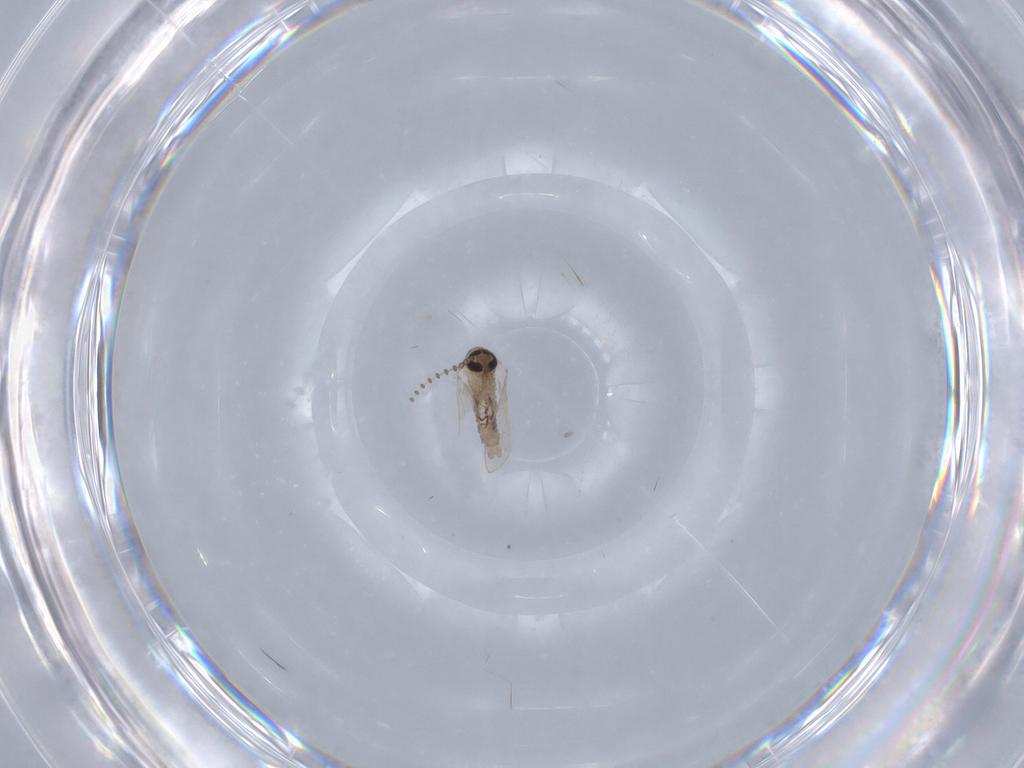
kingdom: Animalia
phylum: Arthropoda
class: Insecta
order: Diptera
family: Psychodidae
